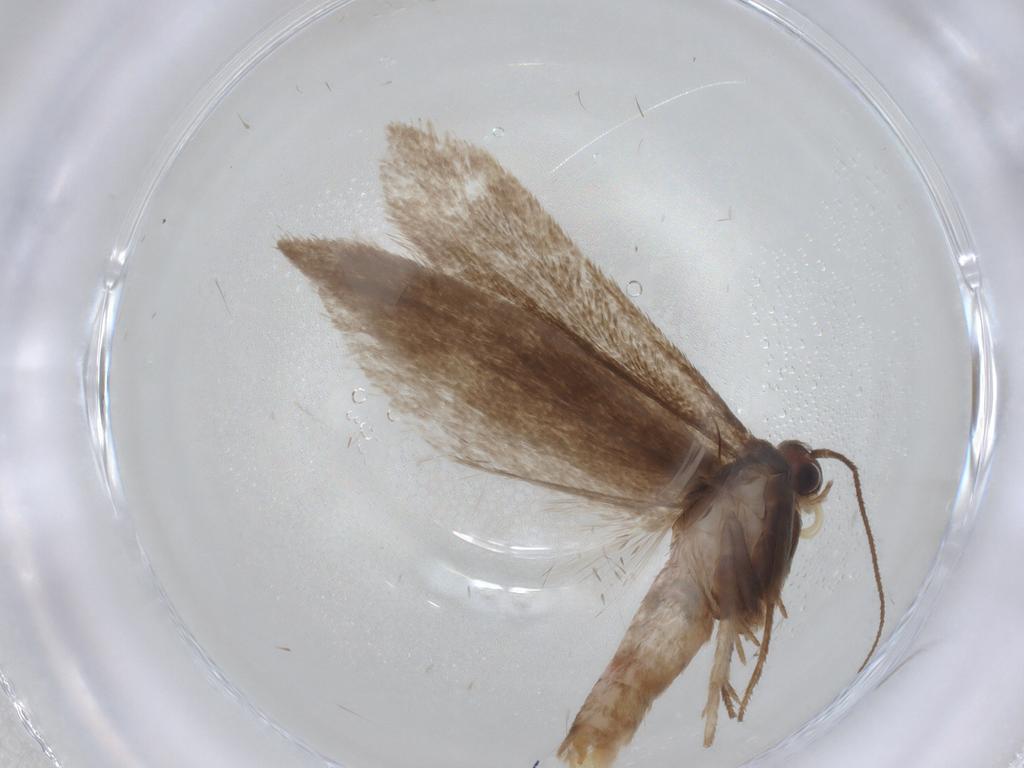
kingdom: Animalia
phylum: Arthropoda
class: Insecta
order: Lepidoptera
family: Limacodidae
